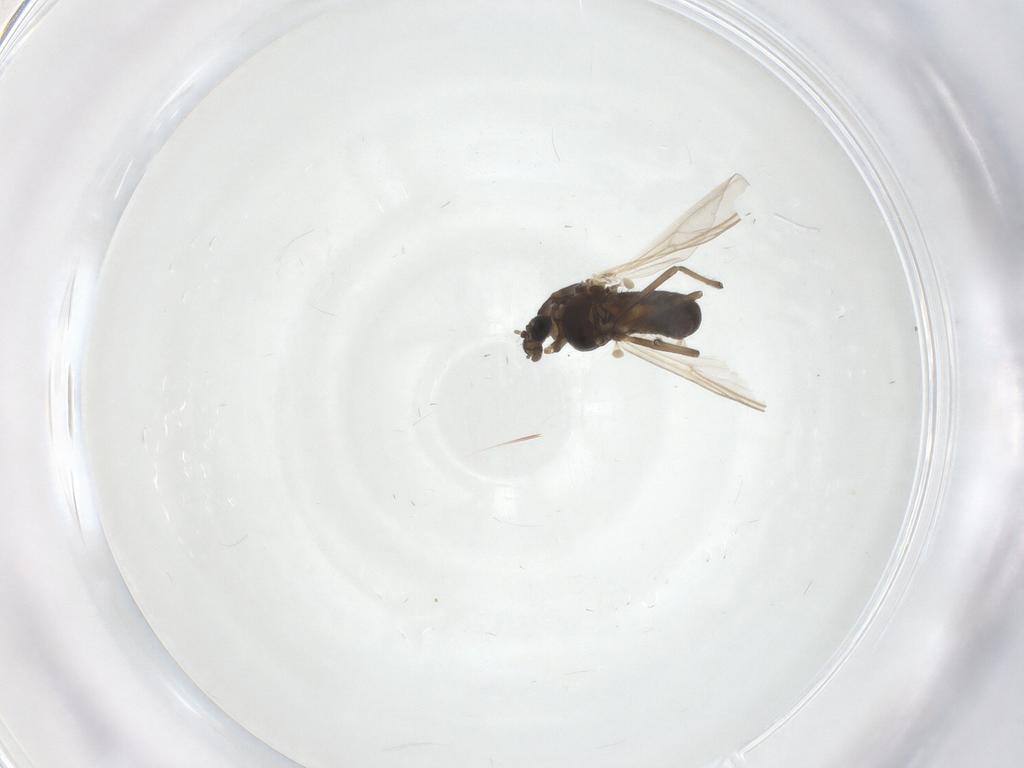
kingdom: Animalia
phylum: Arthropoda
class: Insecta
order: Diptera
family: Chironomidae
